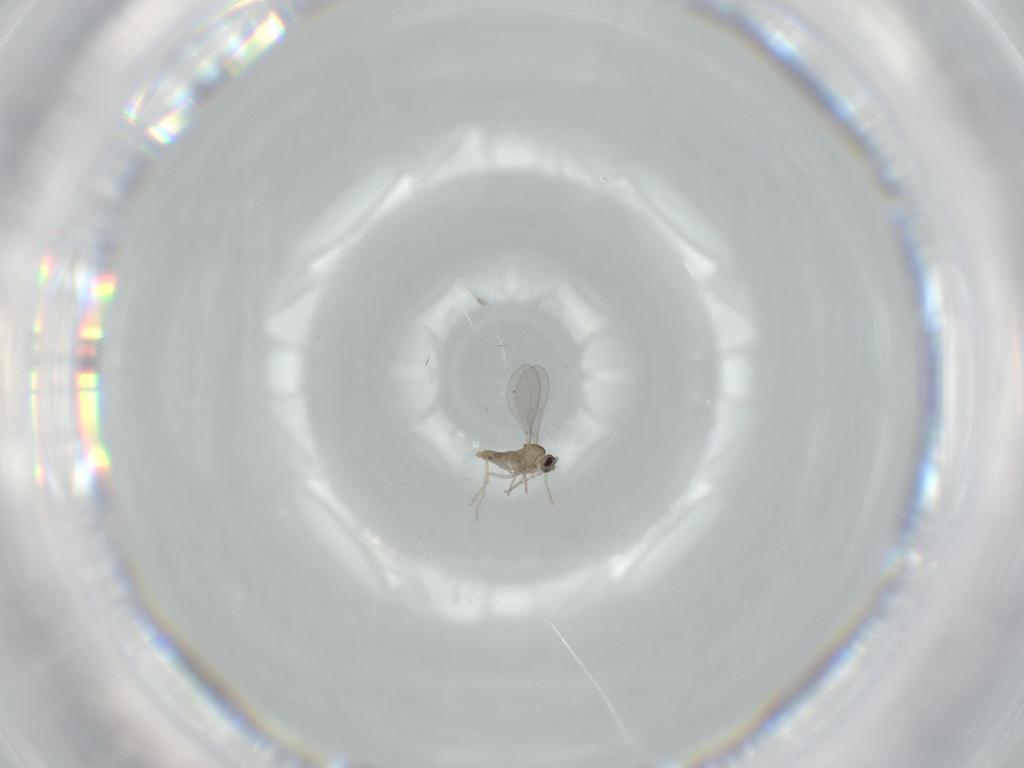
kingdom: Animalia
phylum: Arthropoda
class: Insecta
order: Diptera
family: Cecidomyiidae
